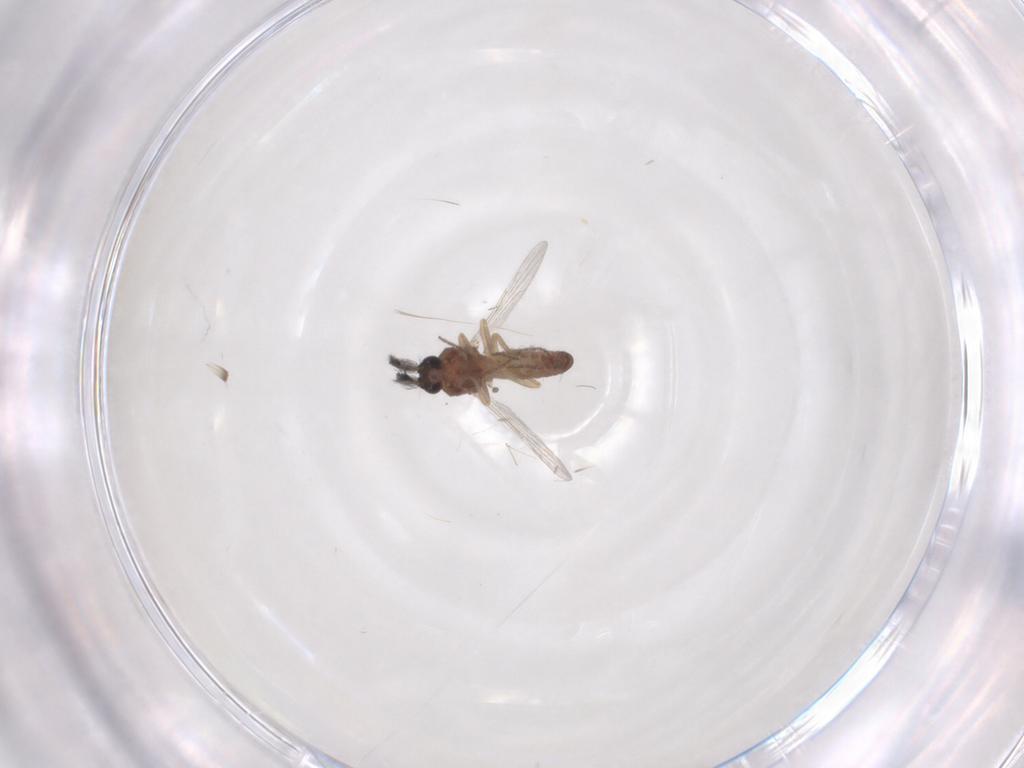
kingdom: Animalia
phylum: Arthropoda
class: Insecta
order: Diptera
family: Ceratopogonidae
